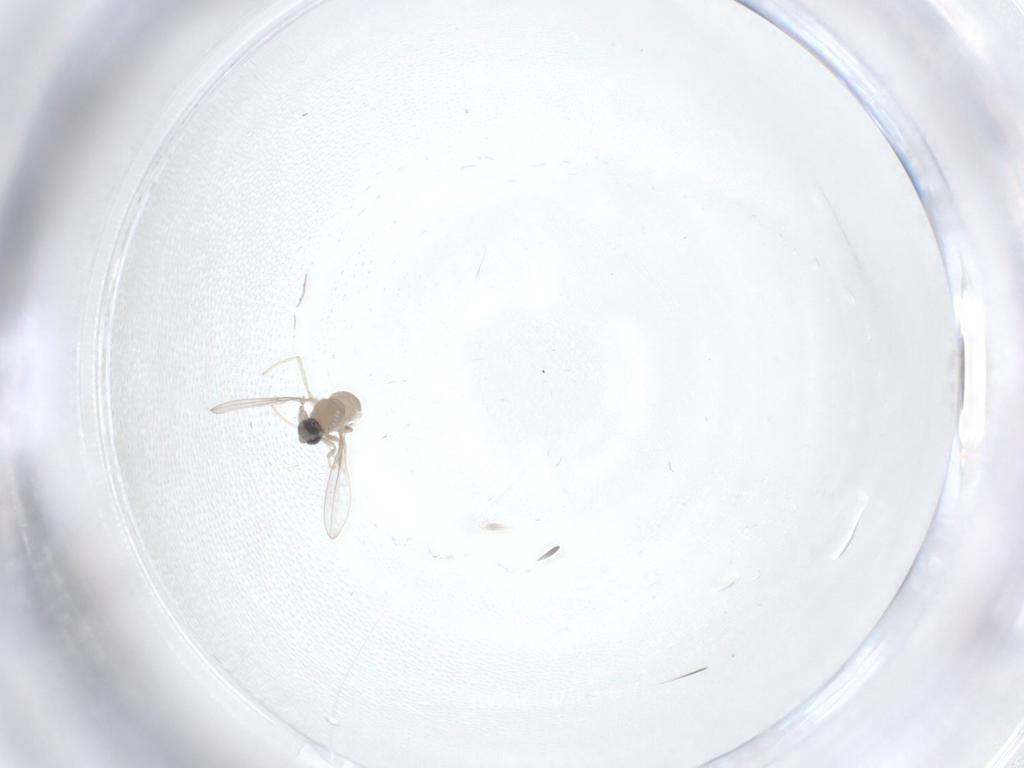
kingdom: Animalia
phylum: Arthropoda
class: Insecta
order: Diptera
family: Cecidomyiidae
